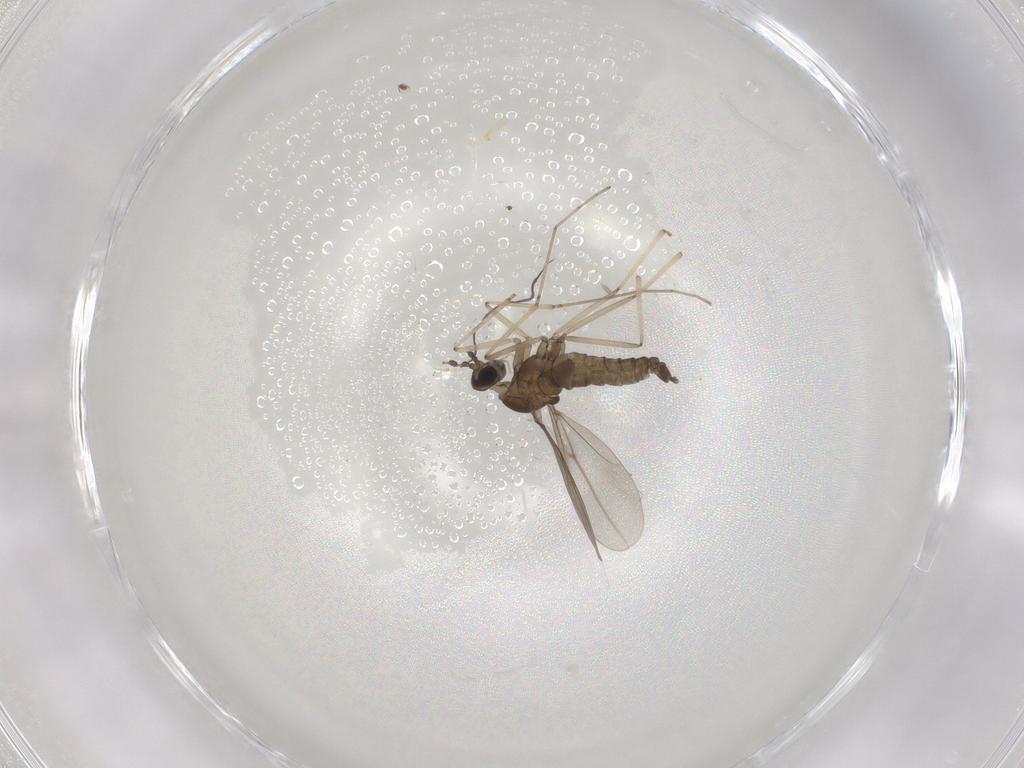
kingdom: Animalia
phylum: Arthropoda
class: Insecta
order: Diptera
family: Cecidomyiidae
